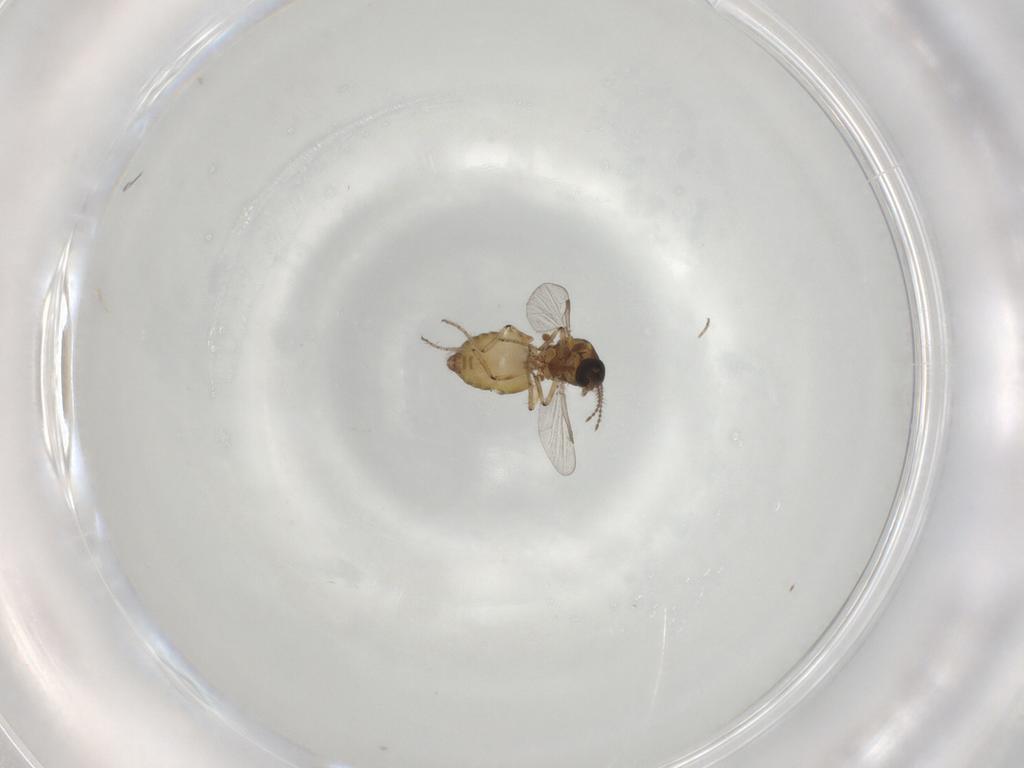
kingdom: Animalia
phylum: Arthropoda
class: Insecta
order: Diptera
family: Ceratopogonidae
